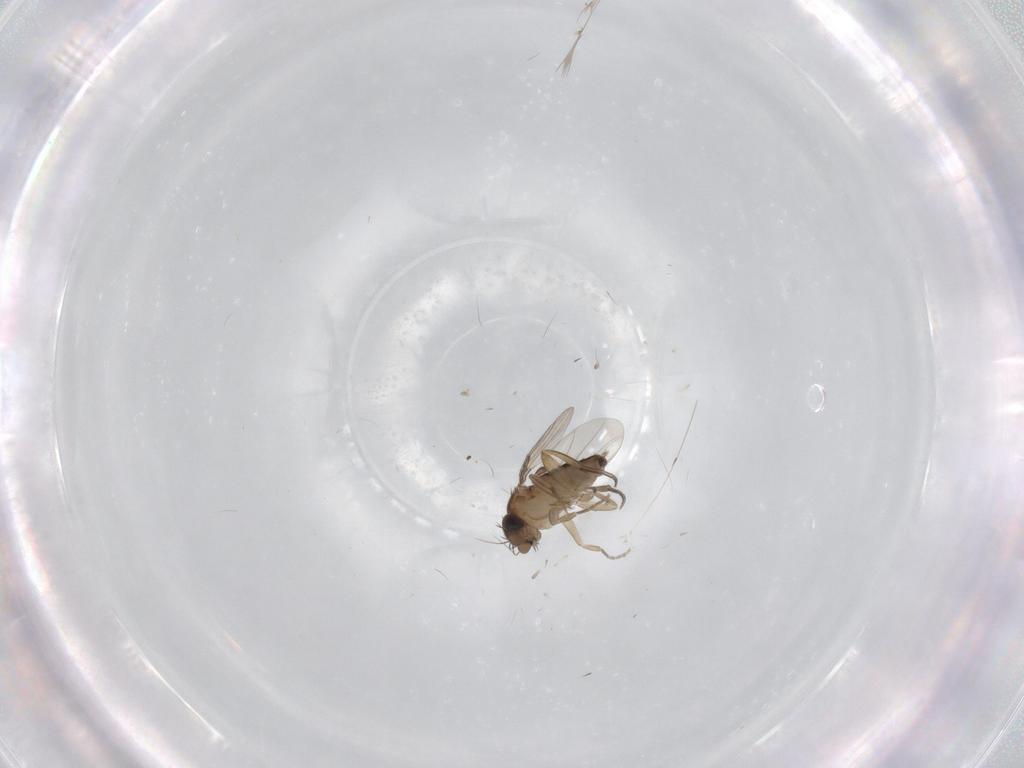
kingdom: Animalia
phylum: Arthropoda
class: Insecta
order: Diptera
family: Phoridae
